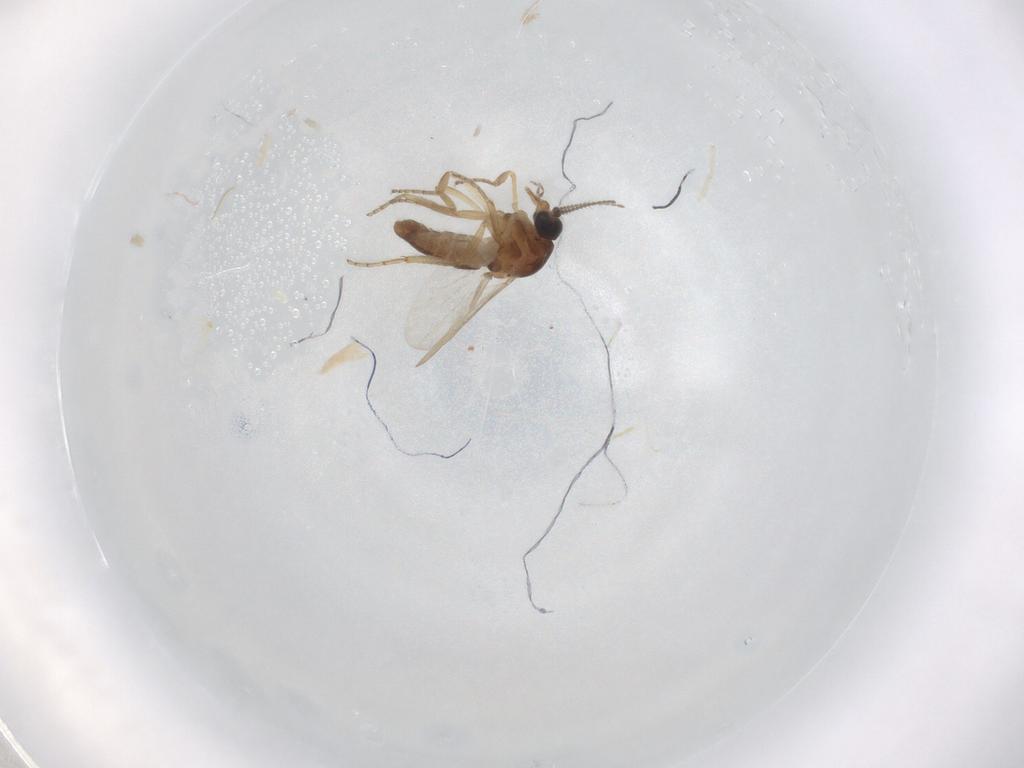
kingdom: Animalia
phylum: Arthropoda
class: Insecta
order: Diptera
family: Ceratopogonidae
